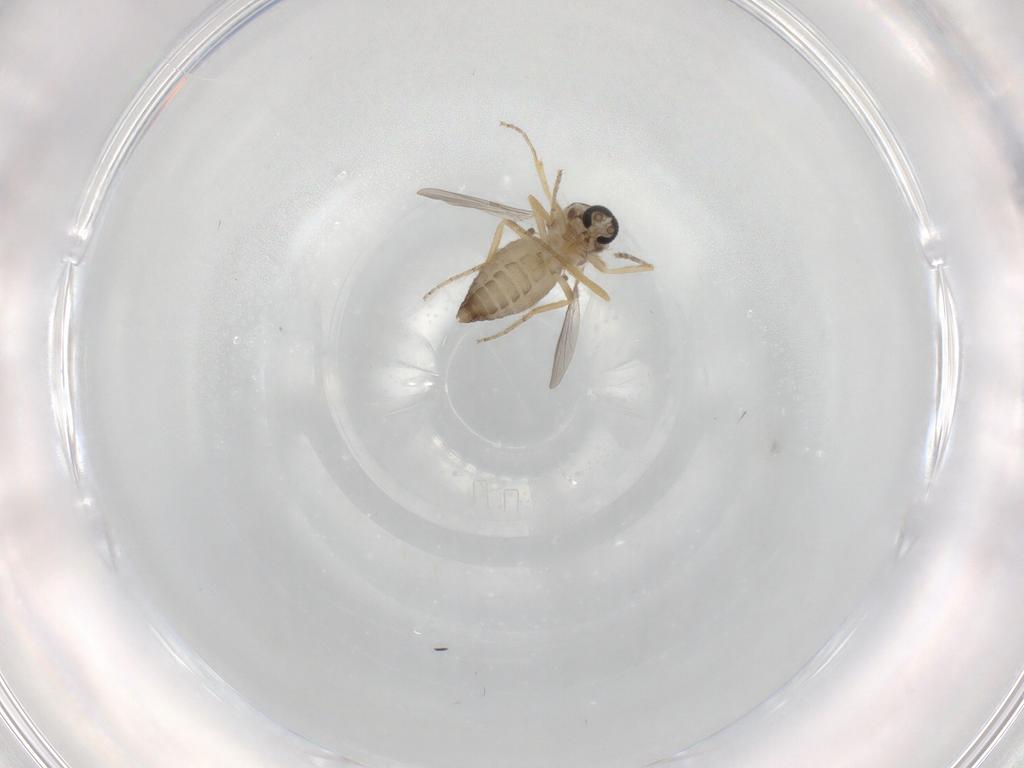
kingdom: Animalia
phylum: Arthropoda
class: Insecta
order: Diptera
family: Ceratopogonidae
